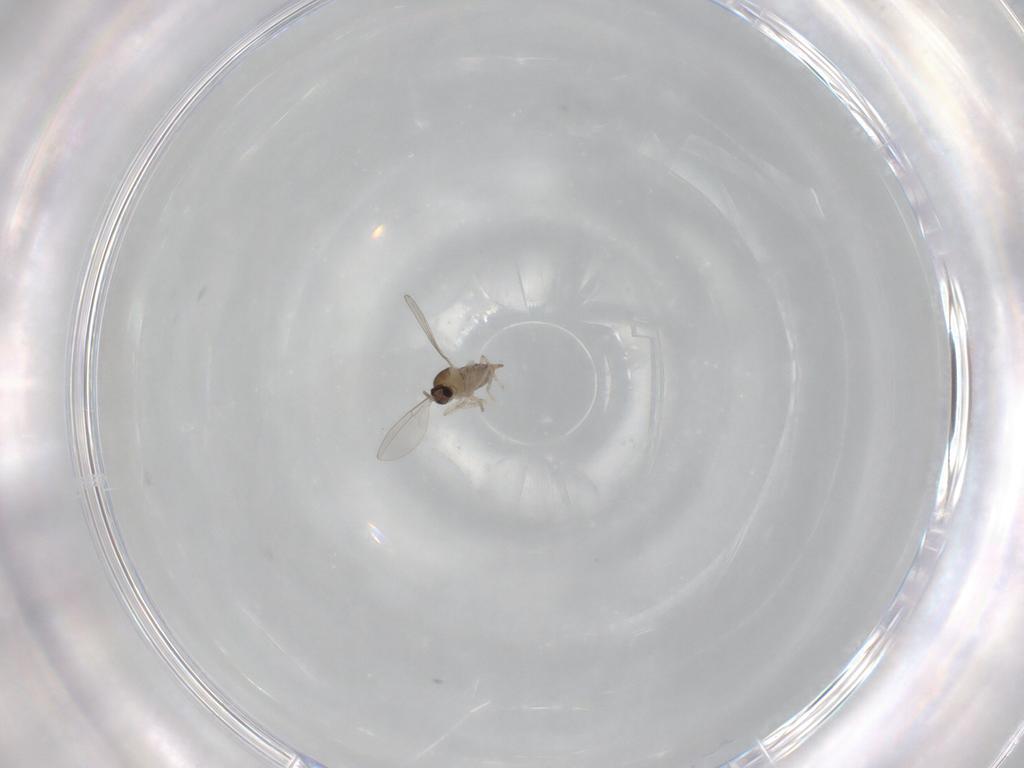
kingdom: Animalia
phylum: Arthropoda
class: Insecta
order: Diptera
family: Cecidomyiidae
